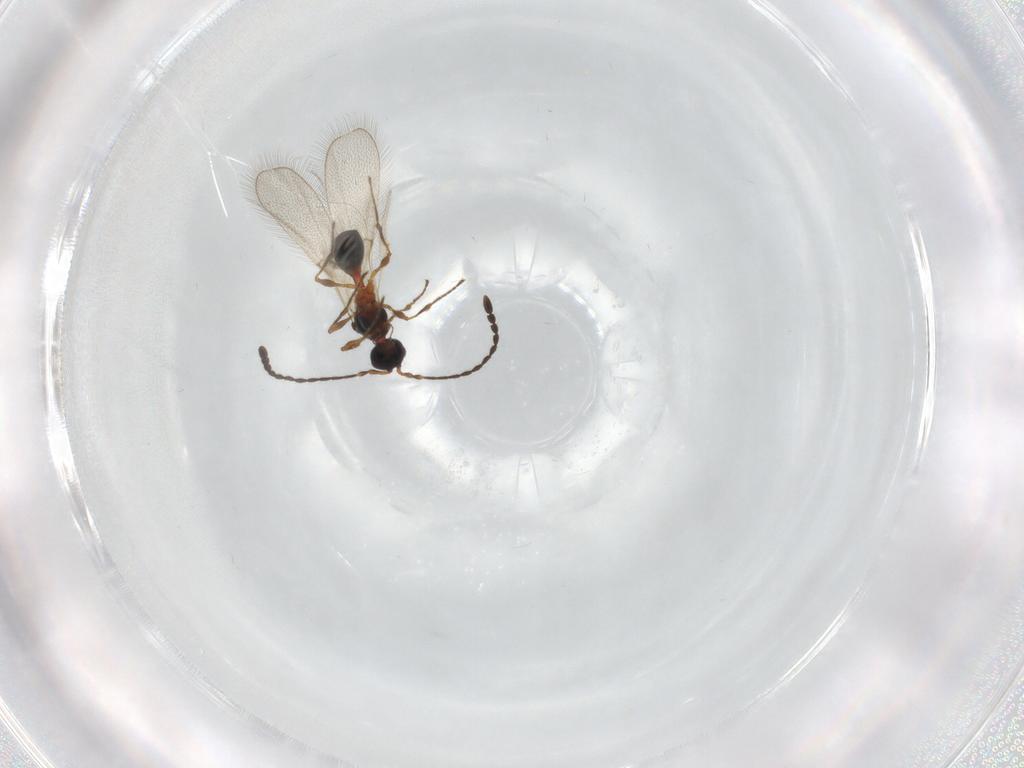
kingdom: Animalia
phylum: Arthropoda
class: Insecta
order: Hymenoptera
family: Diapriidae
